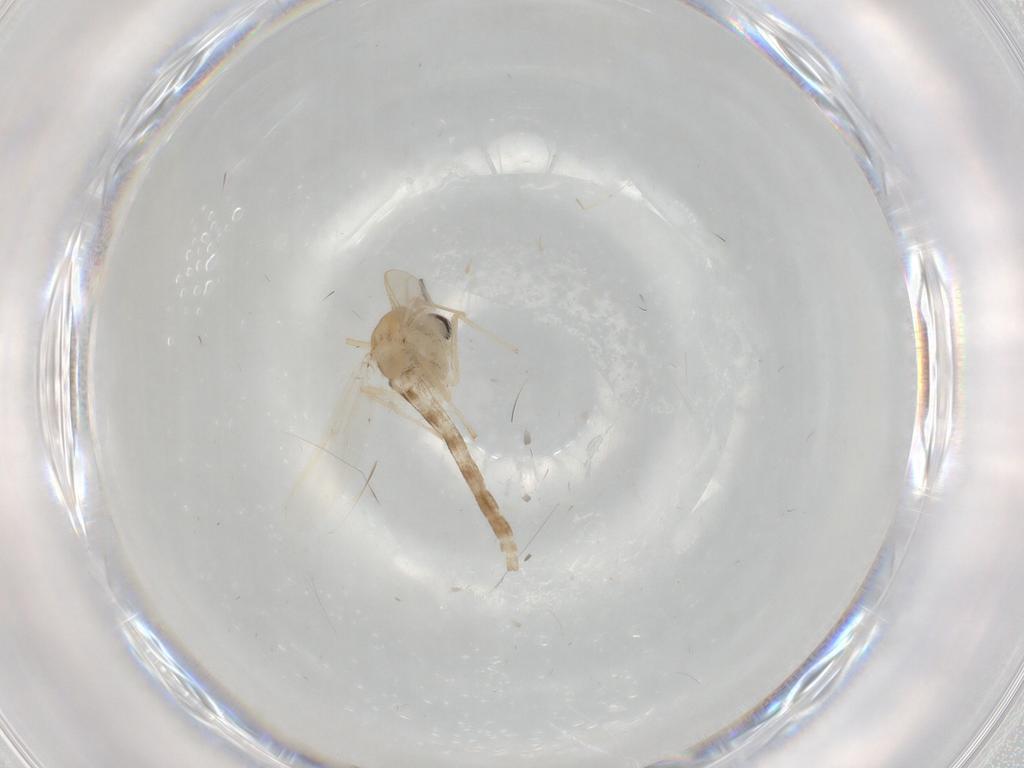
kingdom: Animalia
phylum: Arthropoda
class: Insecta
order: Diptera
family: Chironomidae
